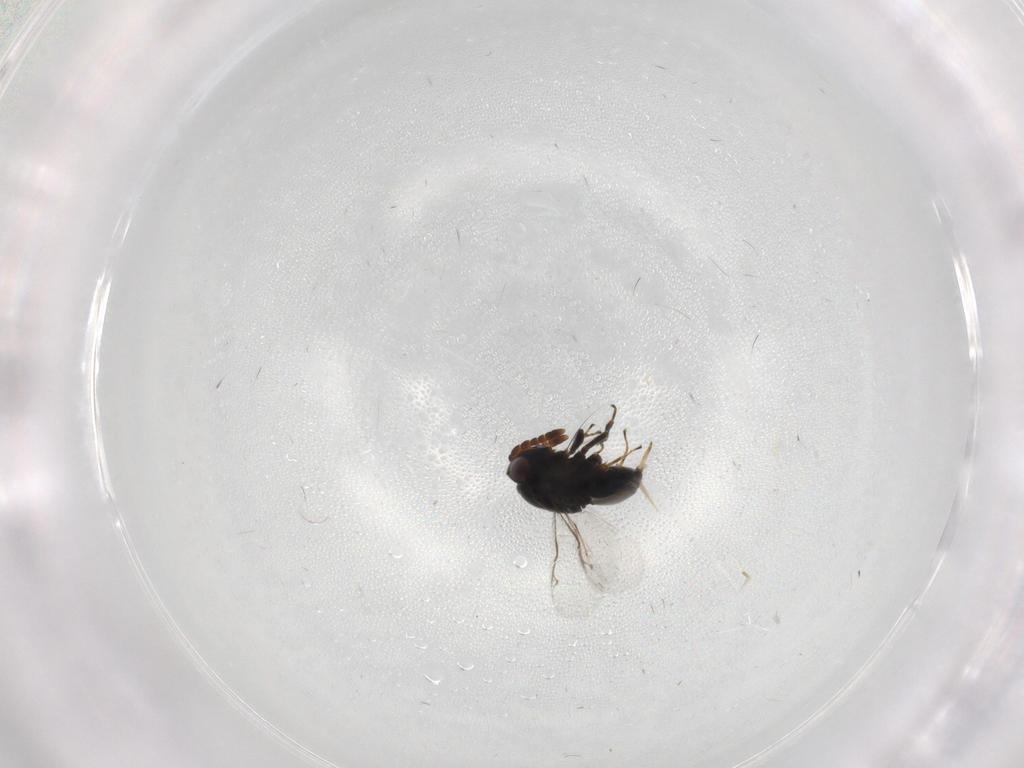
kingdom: Animalia
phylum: Arthropoda
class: Insecta
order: Hymenoptera
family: Encyrtidae
